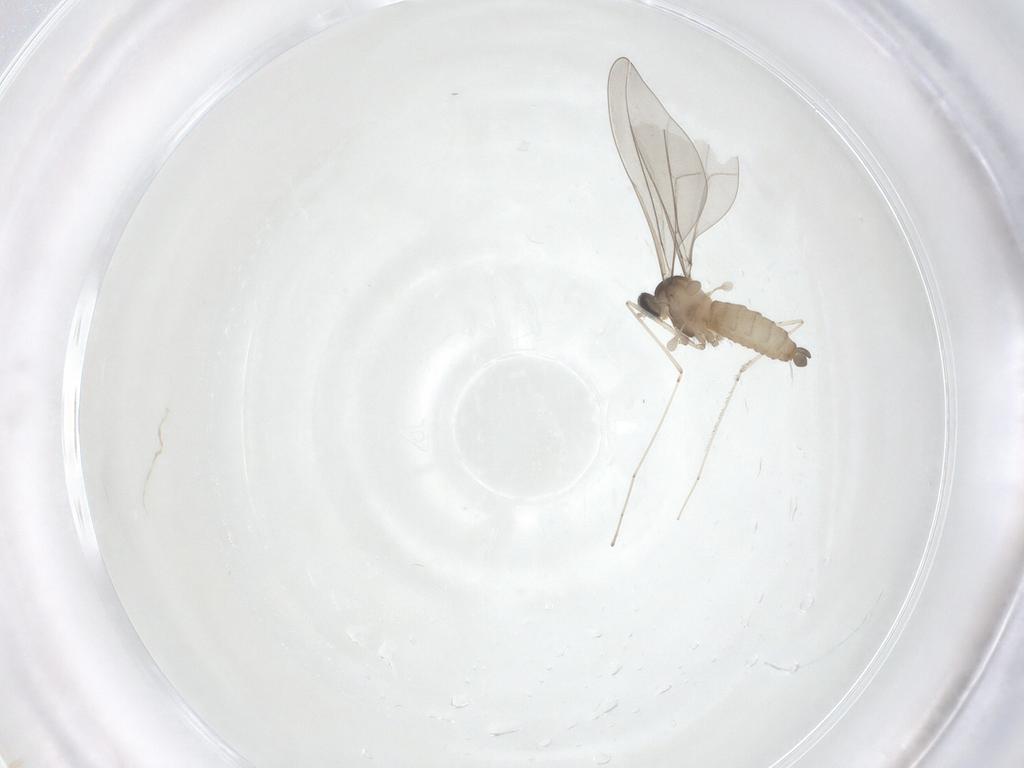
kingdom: Animalia
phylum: Arthropoda
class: Insecta
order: Diptera
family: Cecidomyiidae
